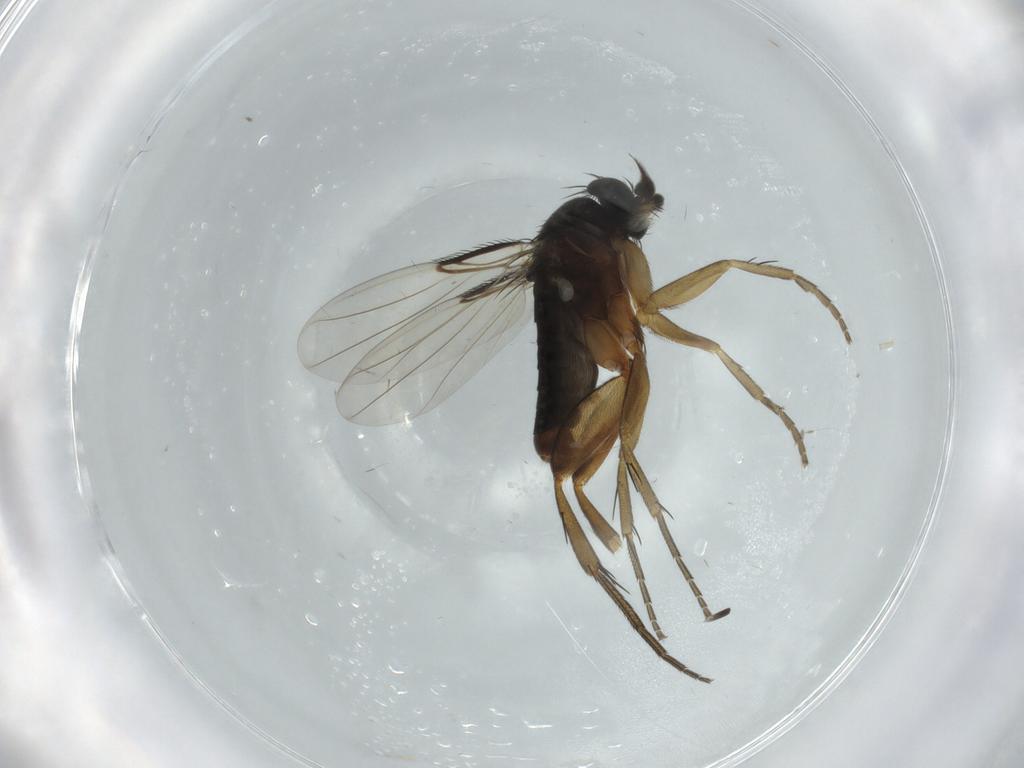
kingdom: Animalia
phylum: Arthropoda
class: Insecta
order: Diptera
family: Phoridae
